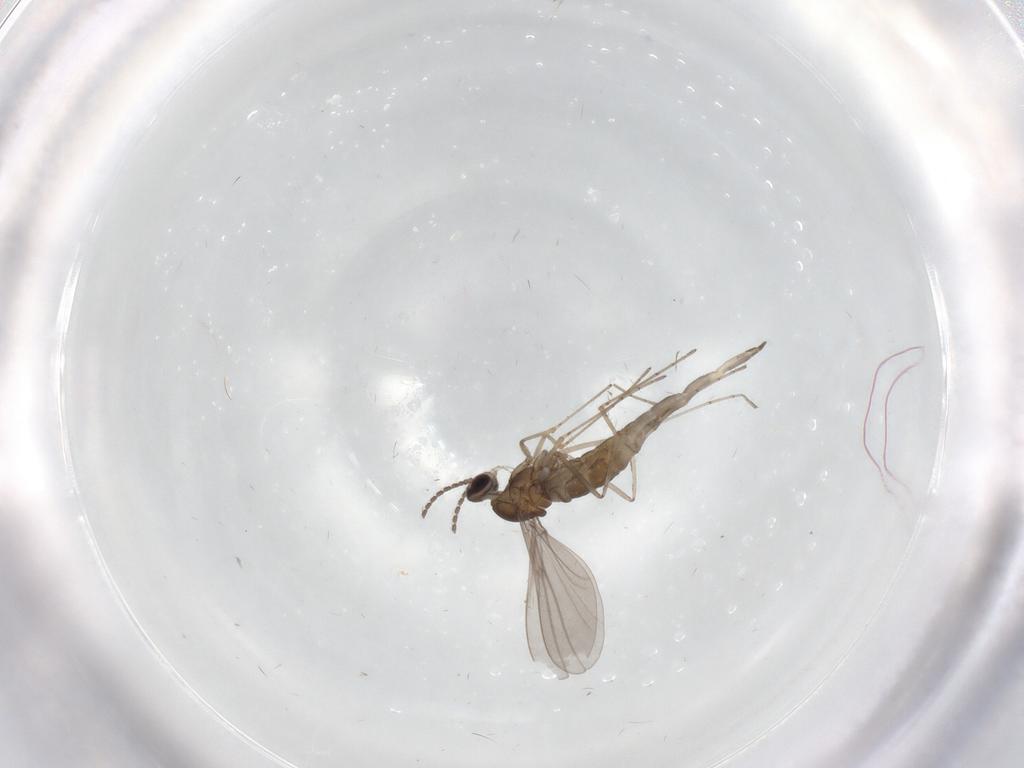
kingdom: Animalia
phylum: Arthropoda
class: Insecta
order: Diptera
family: Cecidomyiidae
